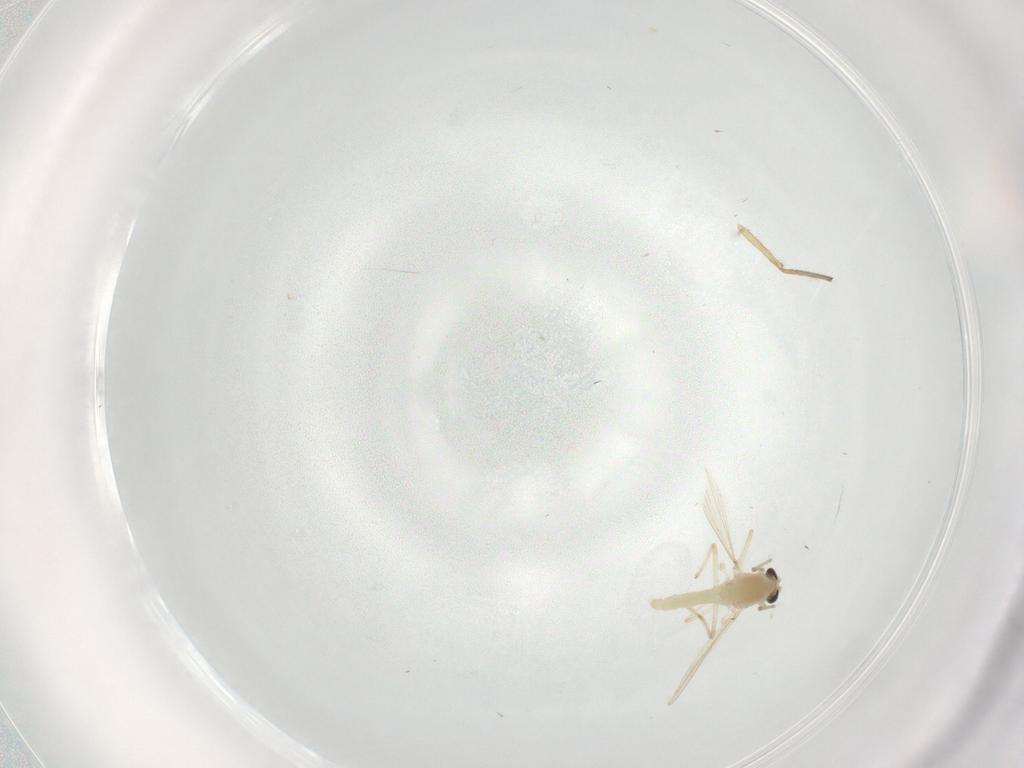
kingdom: Animalia
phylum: Arthropoda
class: Insecta
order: Diptera
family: Chironomidae
